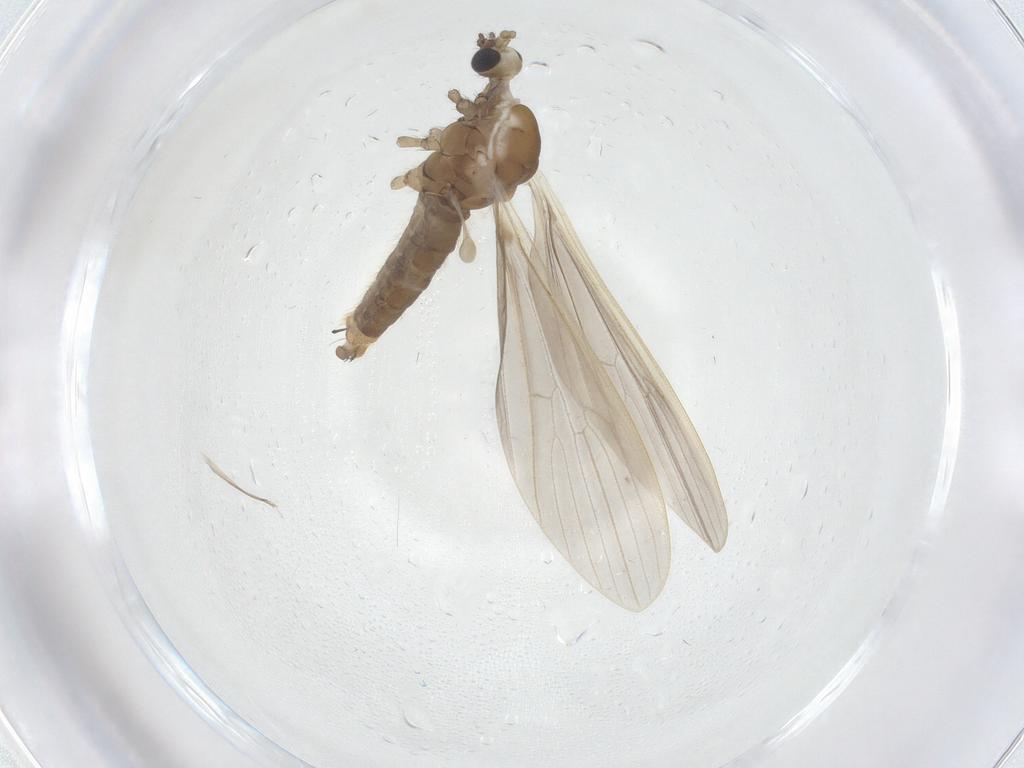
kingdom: Animalia
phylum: Arthropoda
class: Insecta
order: Diptera
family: Limoniidae
